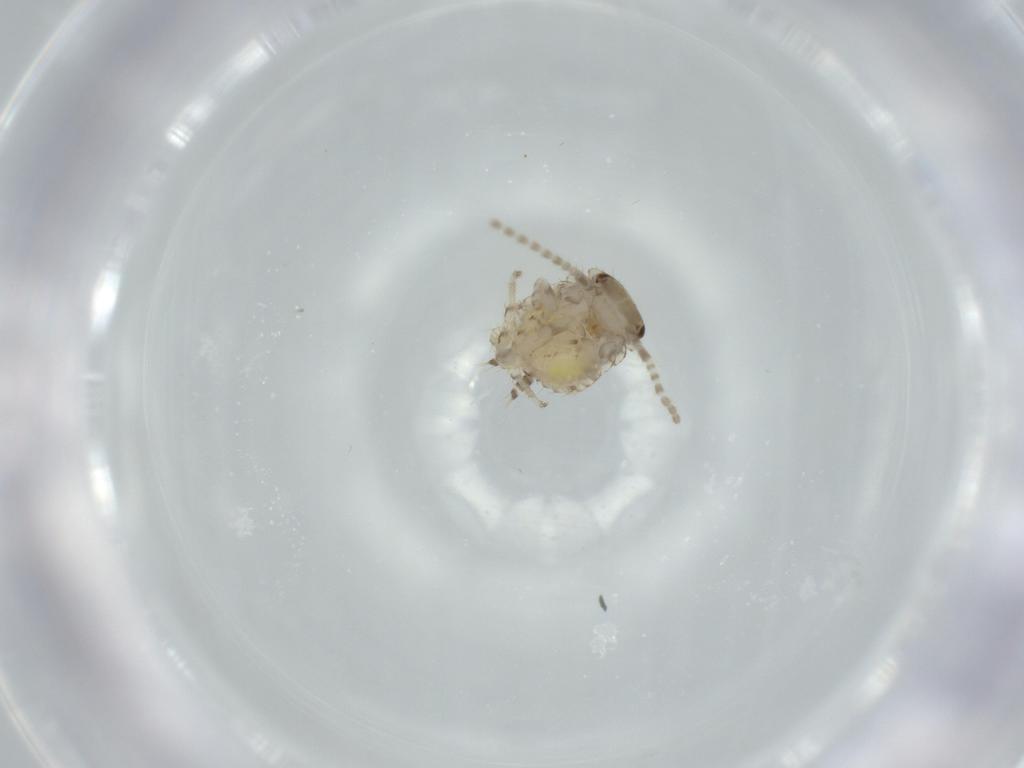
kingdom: Animalia
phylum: Arthropoda
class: Insecta
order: Blattodea
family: Ectobiidae
